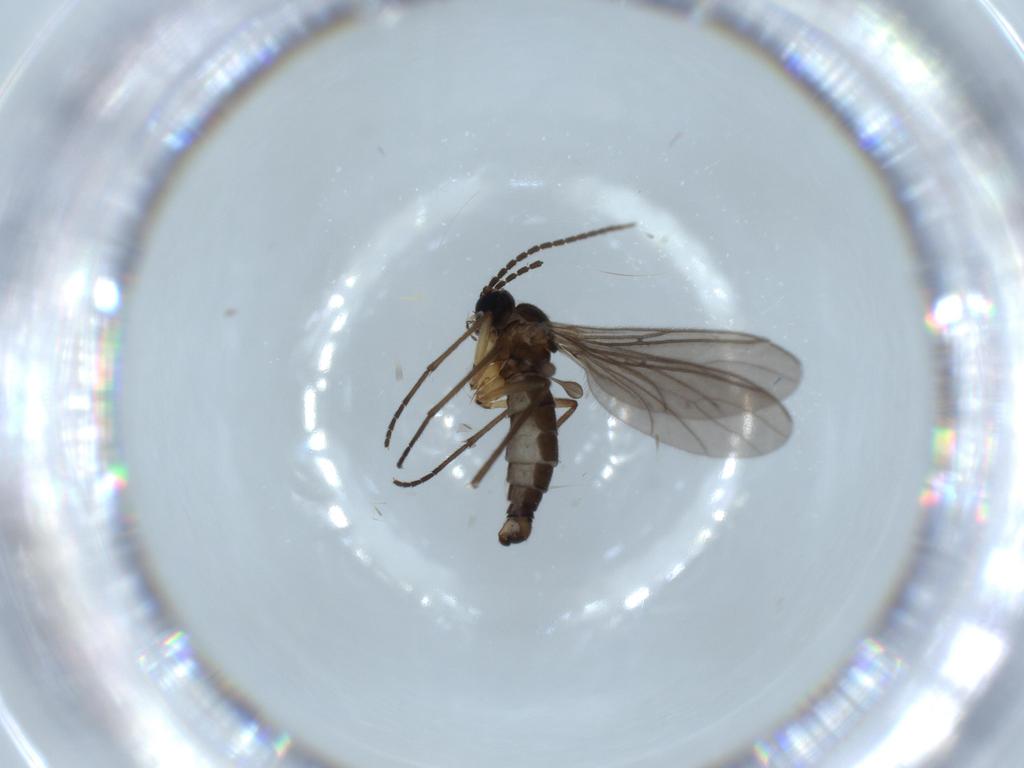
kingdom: Animalia
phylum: Arthropoda
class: Insecta
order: Diptera
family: Sciaridae
